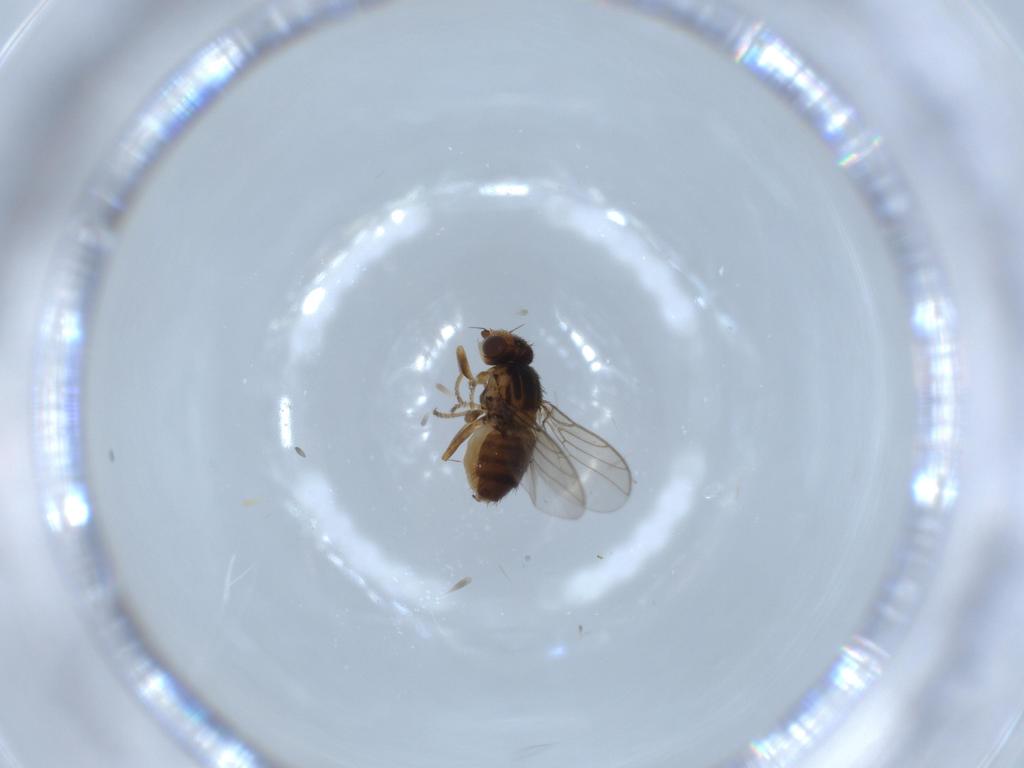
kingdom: Animalia
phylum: Arthropoda
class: Insecta
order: Diptera
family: Chloropidae
